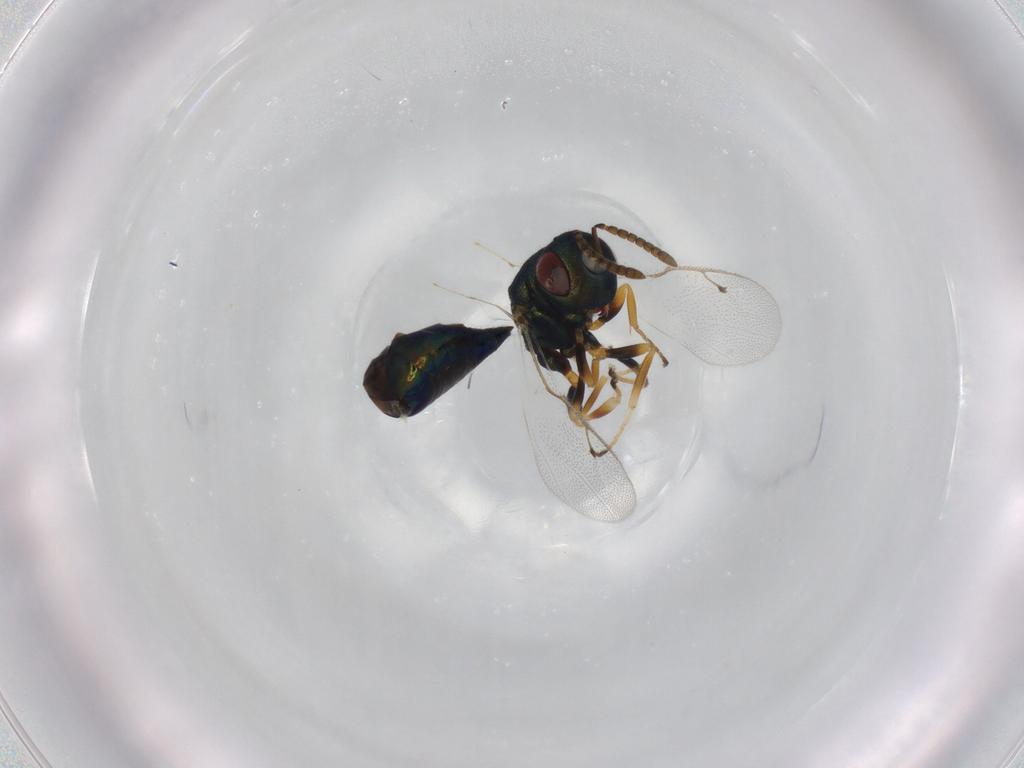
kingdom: Animalia
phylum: Arthropoda
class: Insecta
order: Hymenoptera
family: Pteromalidae
